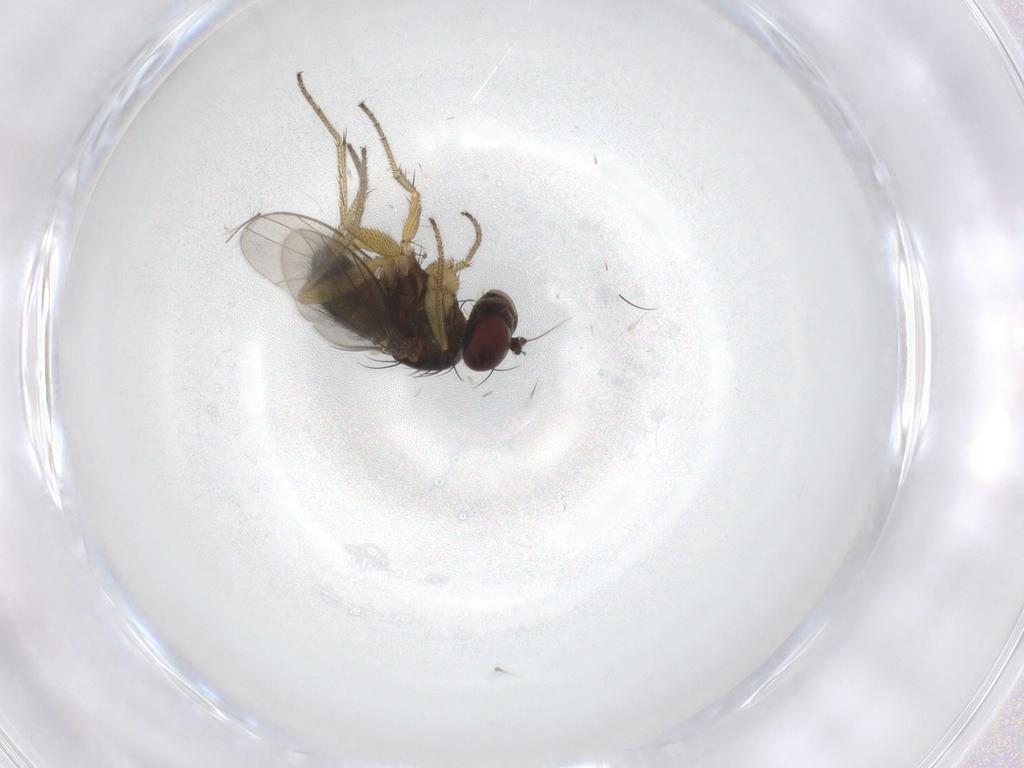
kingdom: Animalia
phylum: Arthropoda
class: Insecta
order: Diptera
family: Dolichopodidae
